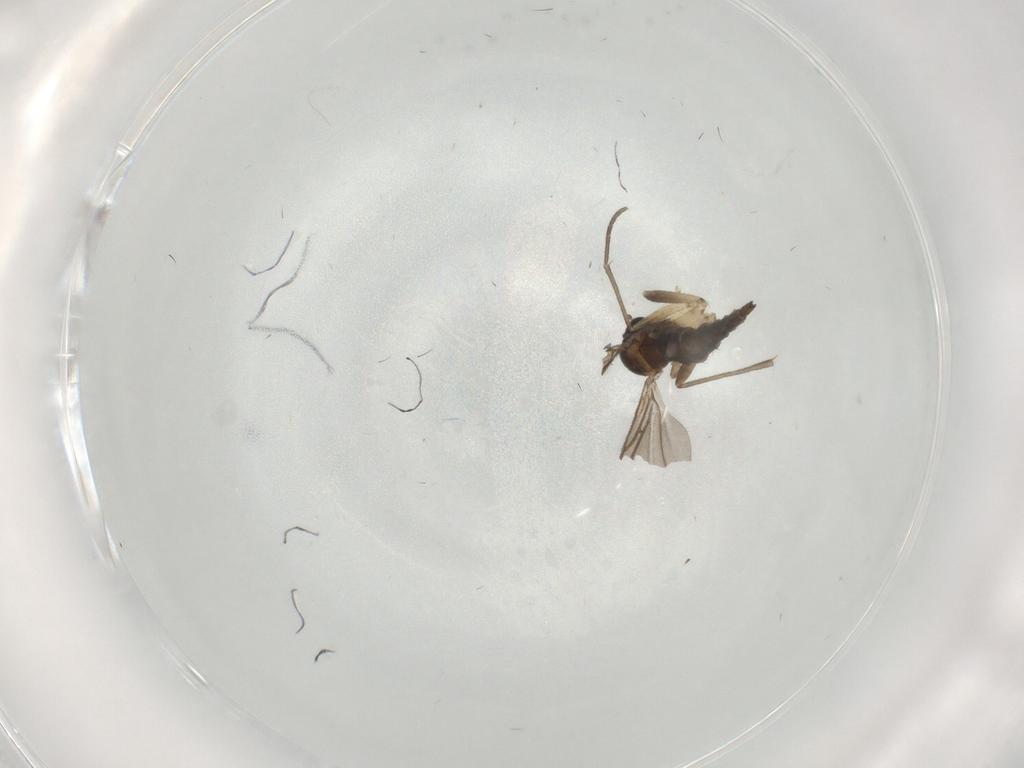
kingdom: Animalia
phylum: Arthropoda
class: Insecta
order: Diptera
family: Sciaridae
